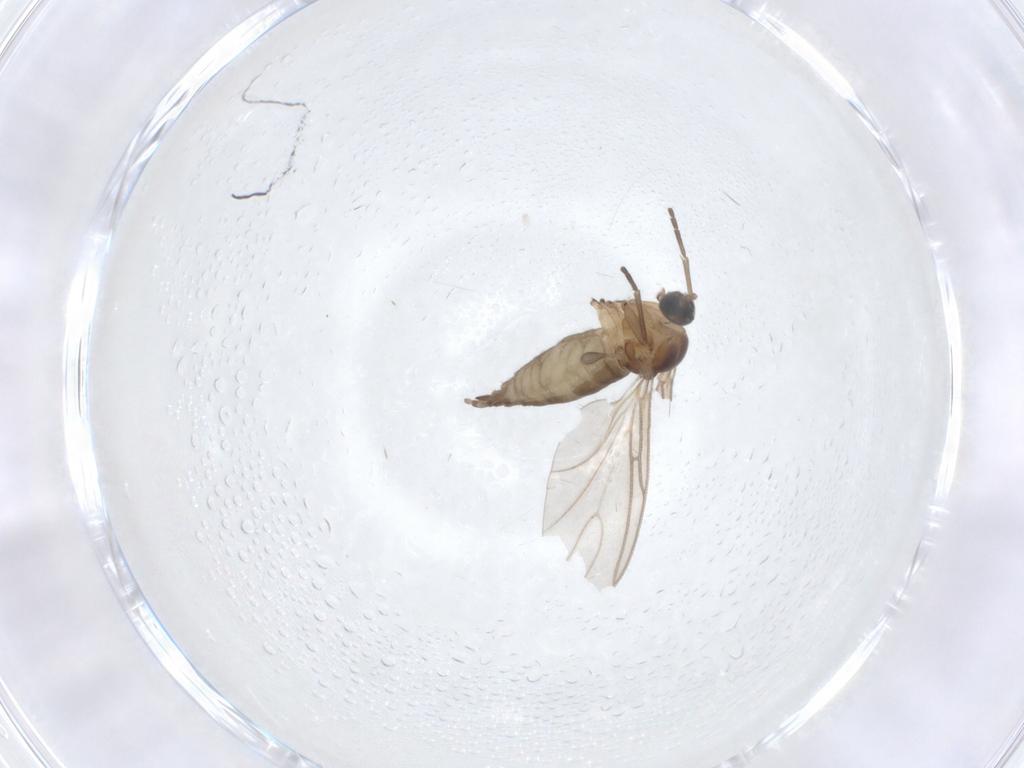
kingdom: Animalia
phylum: Arthropoda
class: Insecta
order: Diptera
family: Sciaridae
